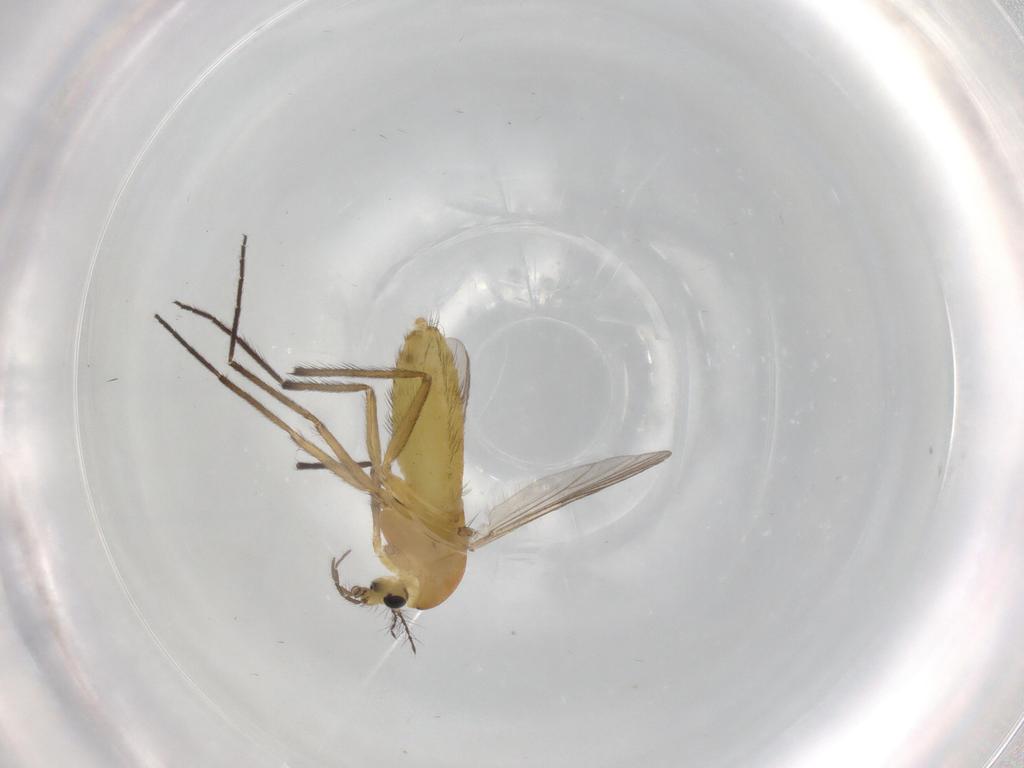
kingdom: Animalia
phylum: Arthropoda
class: Insecta
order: Diptera
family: Chironomidae
